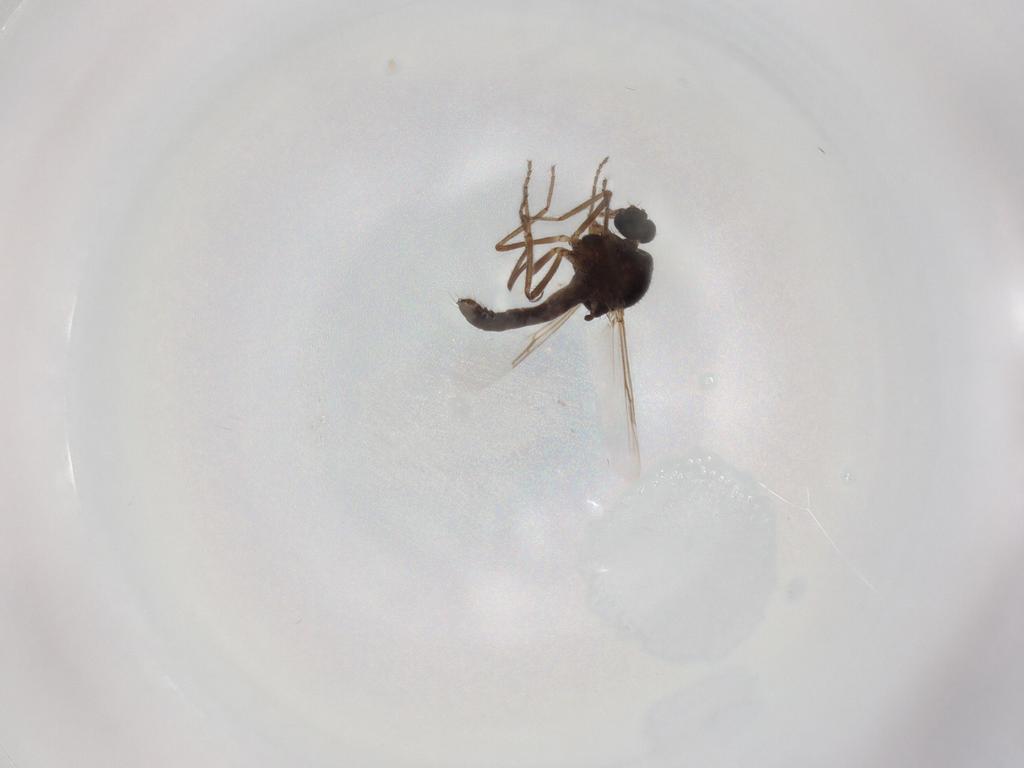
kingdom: Animalia
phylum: Arthropoda
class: Insecta
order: Diptera
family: Ceratopogonidae
